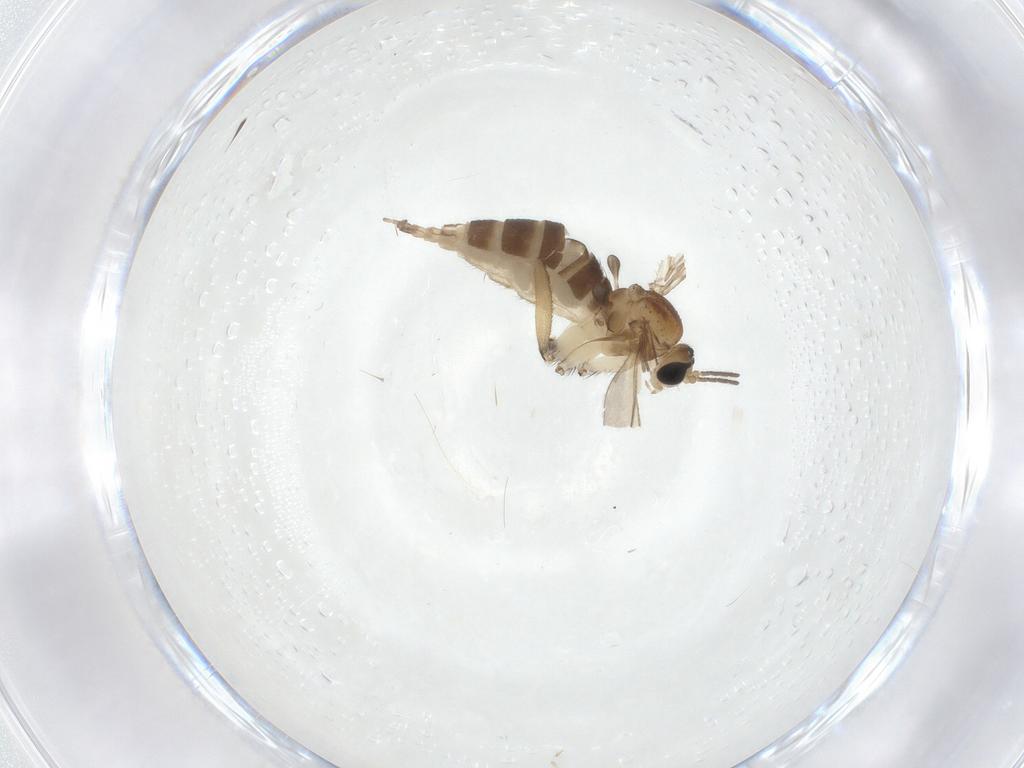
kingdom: Animalia
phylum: Arthropoda
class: Insecta
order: Diptera
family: Sciaridae
